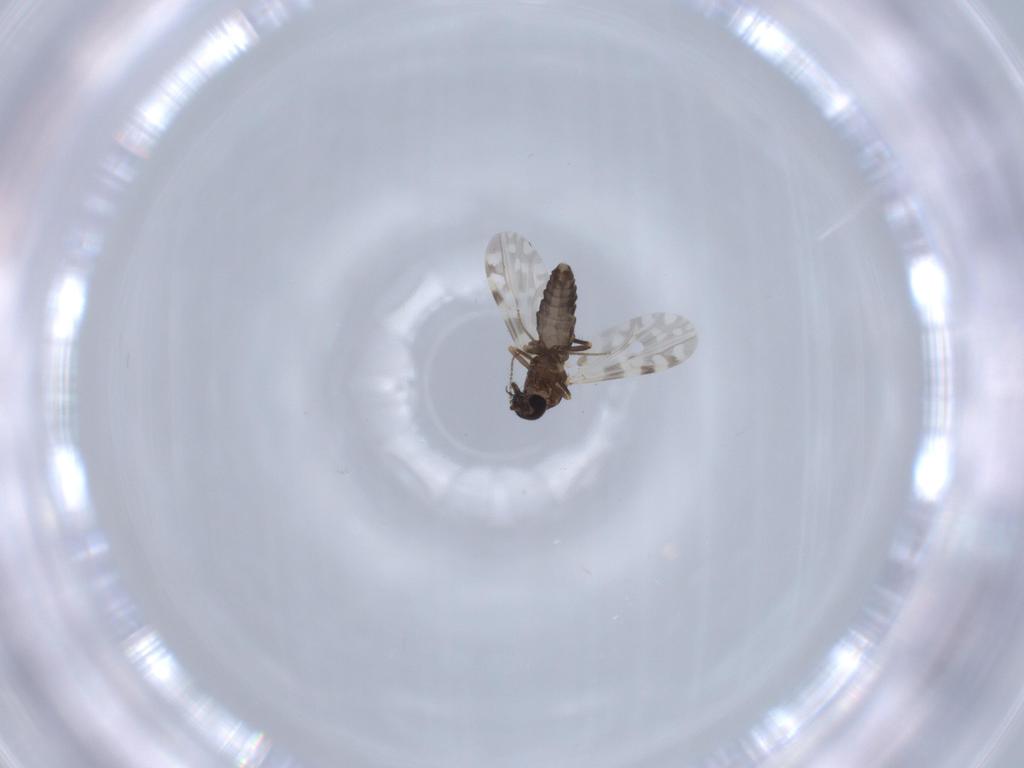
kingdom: Animalia
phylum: Arthropoda
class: Insecta
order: Diptera
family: Ceratopogonidae
